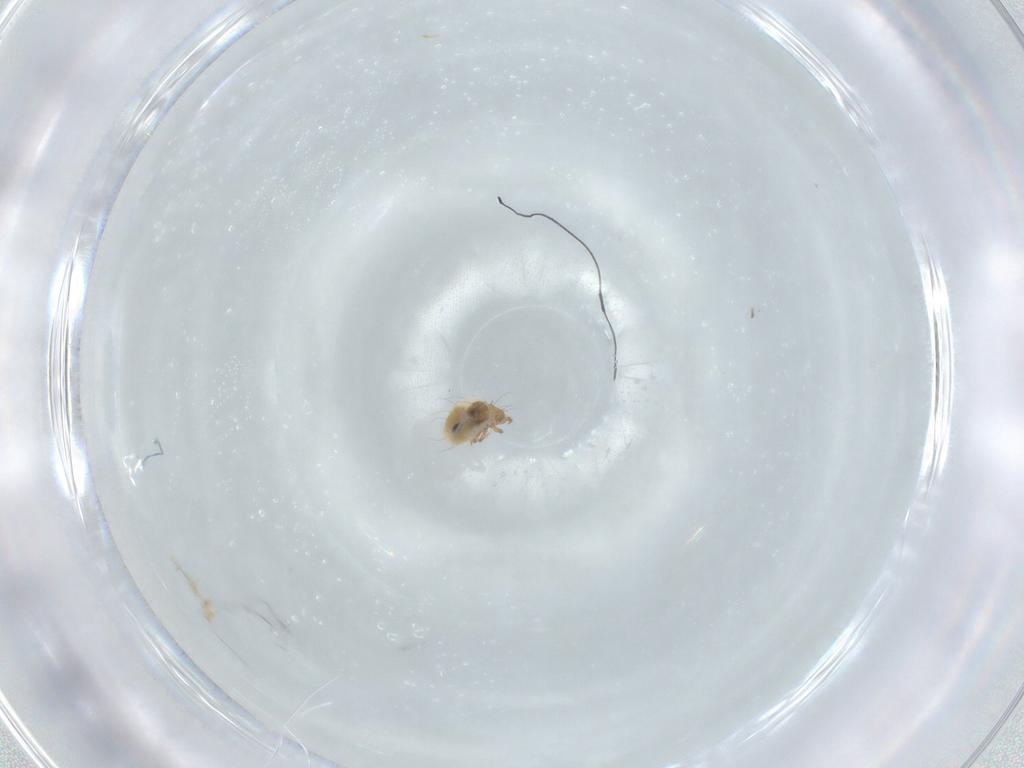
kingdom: Animalia
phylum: Arthropoda
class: Arachnida
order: Sarcoptiformes
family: Mochlozetidae
